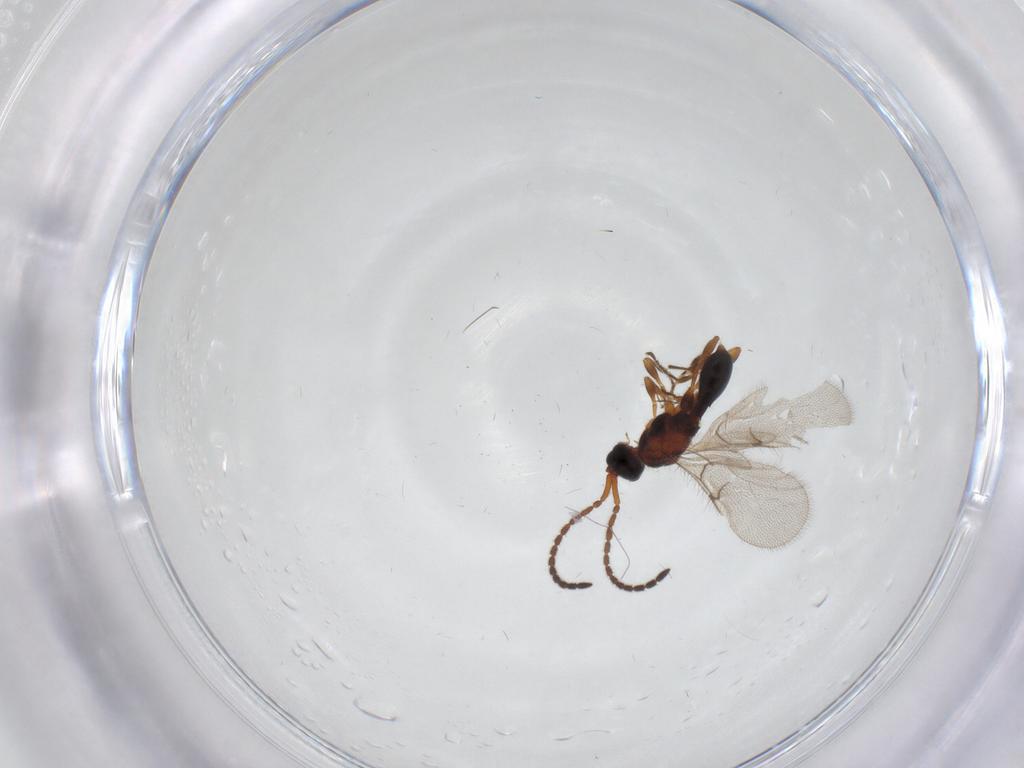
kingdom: Animalia
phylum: Arthropoda
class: Insecta
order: Hymenoptera
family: Diapriidae
